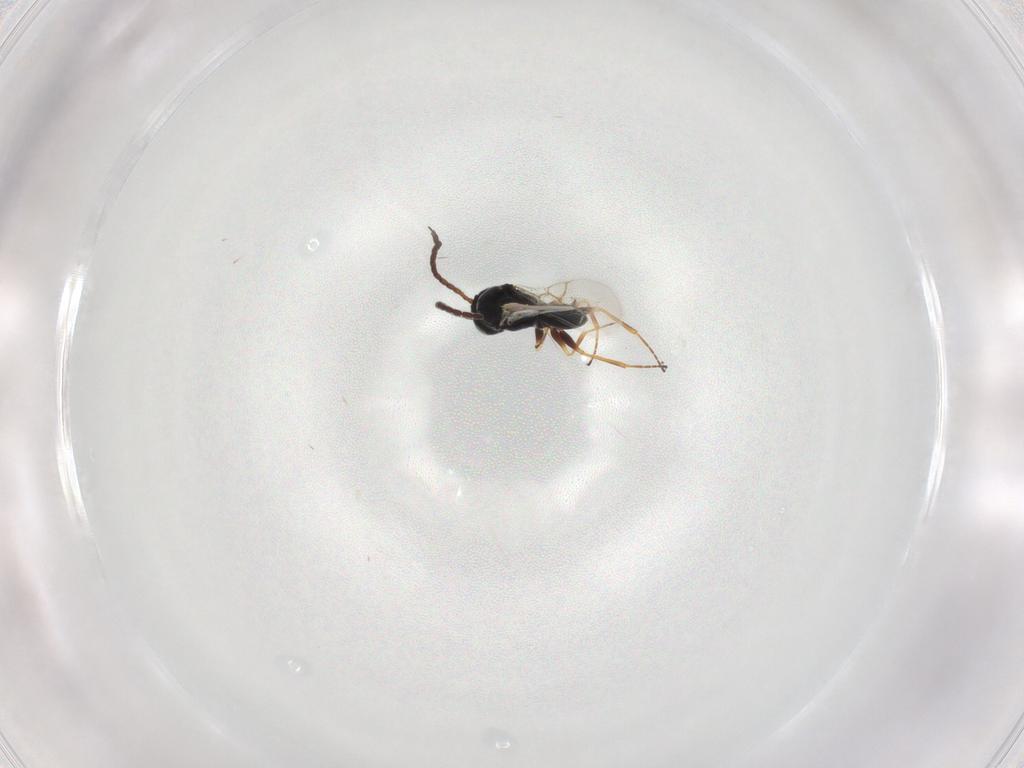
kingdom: Animalia
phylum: Arthropoda
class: Insecta
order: Hymenoptera
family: Figitidae
